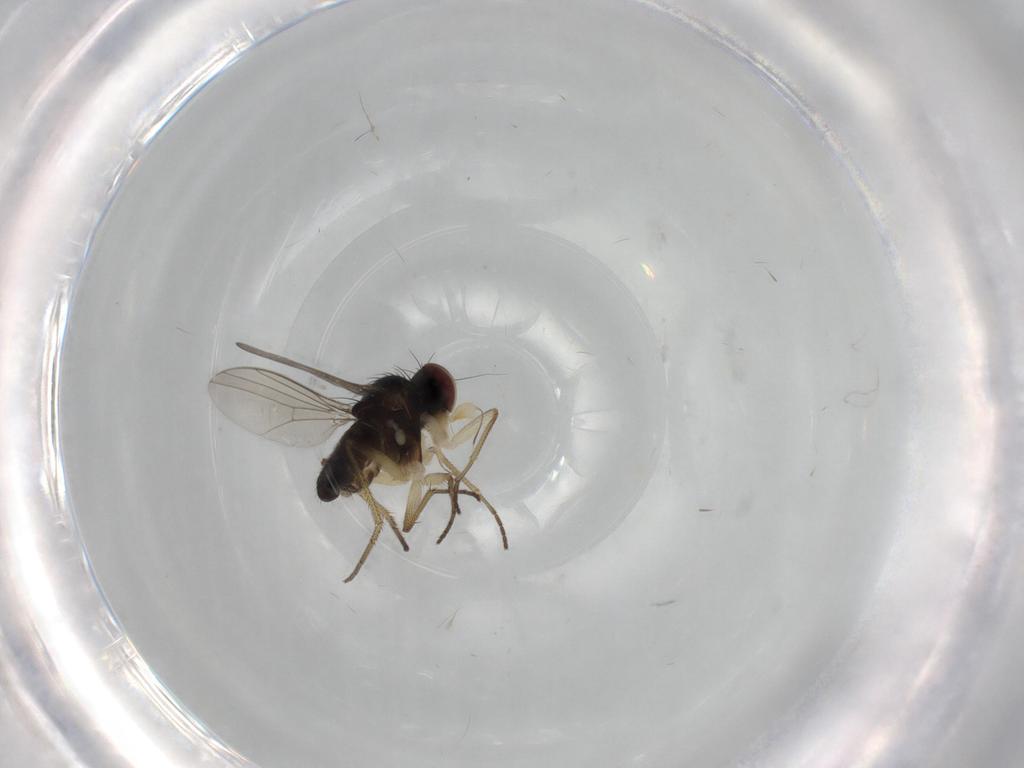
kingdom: Animalia
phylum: Arthropoda
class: Insecta
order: Diptera
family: Dolichopodidae
